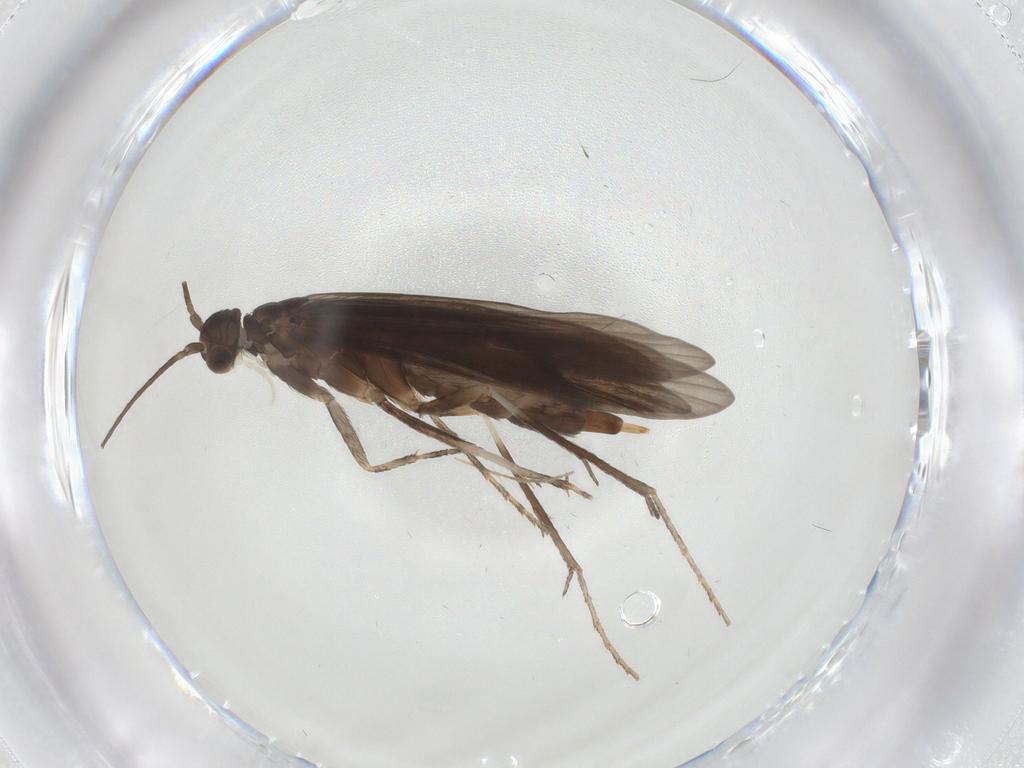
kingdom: Animalia
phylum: Arthropoda
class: Insecta
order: Trichoptera
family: Xiphocentronidae
